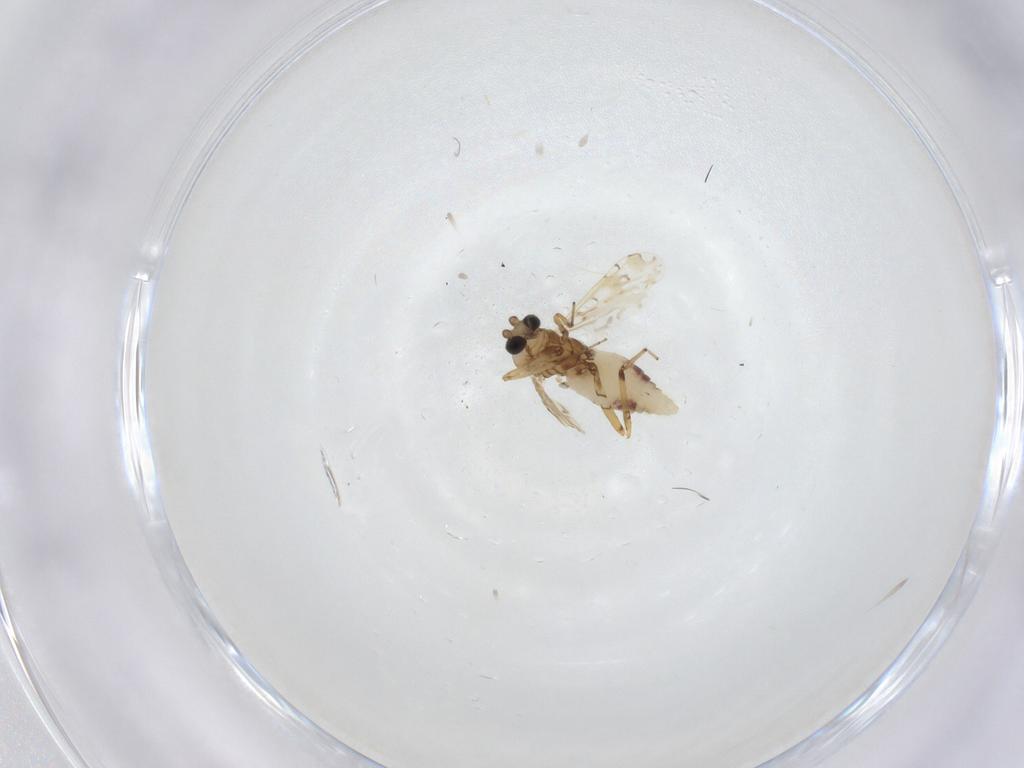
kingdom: Animalia
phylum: Arthropoda
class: Insecta
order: Diptera
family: Ceratopogonidae
